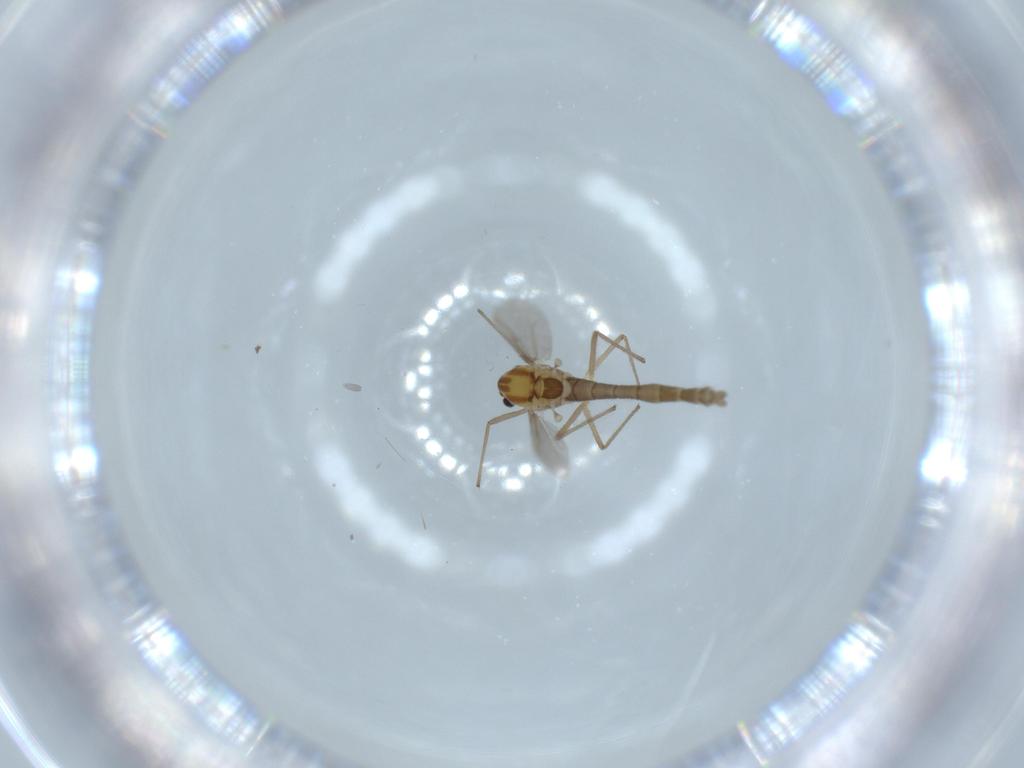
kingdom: Animalia
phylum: Arthropoda
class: Insecta
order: Diptera
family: Chironomidae
